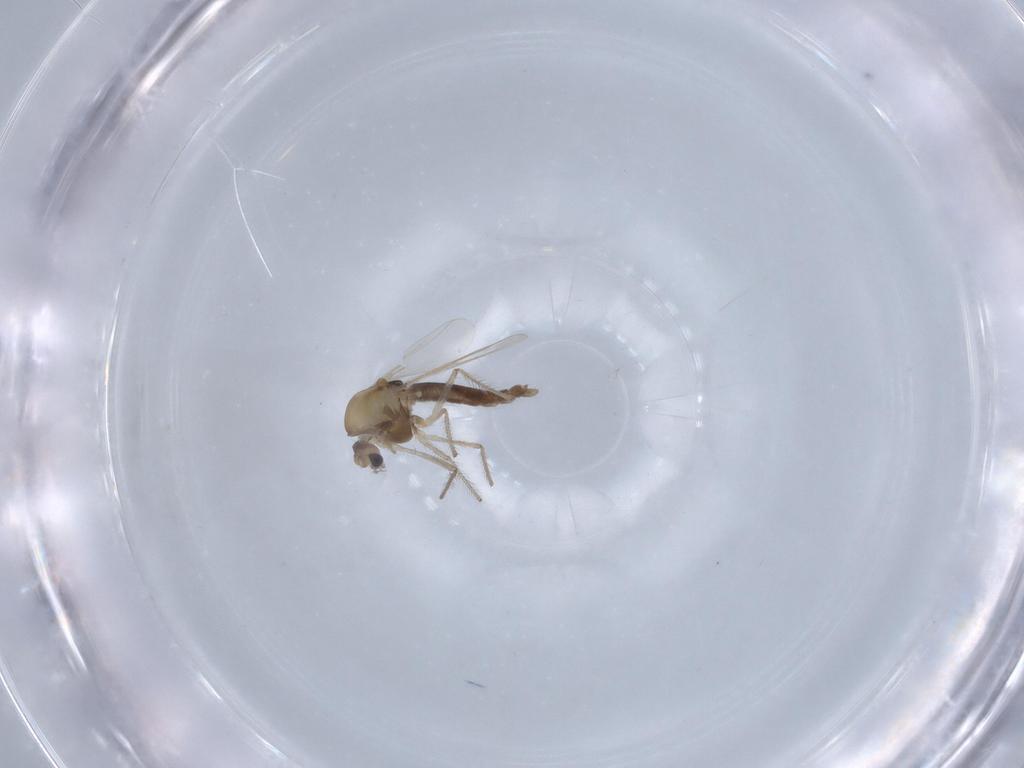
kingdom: Animalia
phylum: Arthropoda
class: Insecta
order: Diptera
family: Chironomidae
